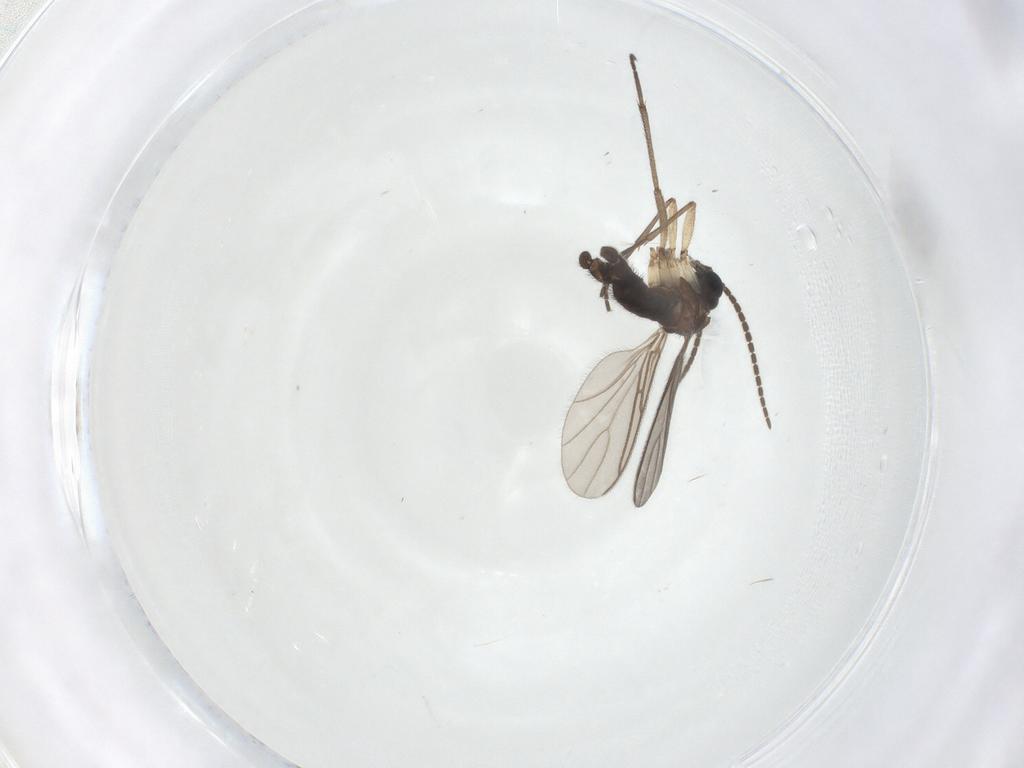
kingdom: Animalia
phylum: Arthropoda
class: Insecta
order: Diptera
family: Sciaridae
